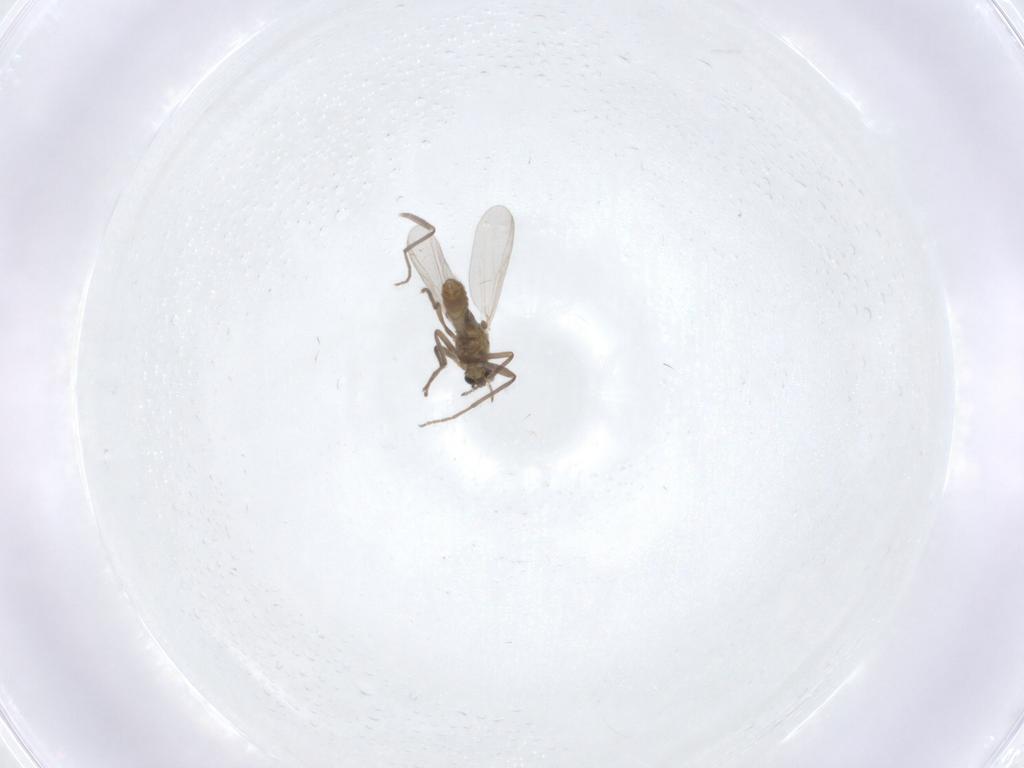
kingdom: Animalia
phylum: Arthropoda
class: Insecta
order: Diptera
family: Chironomidae
